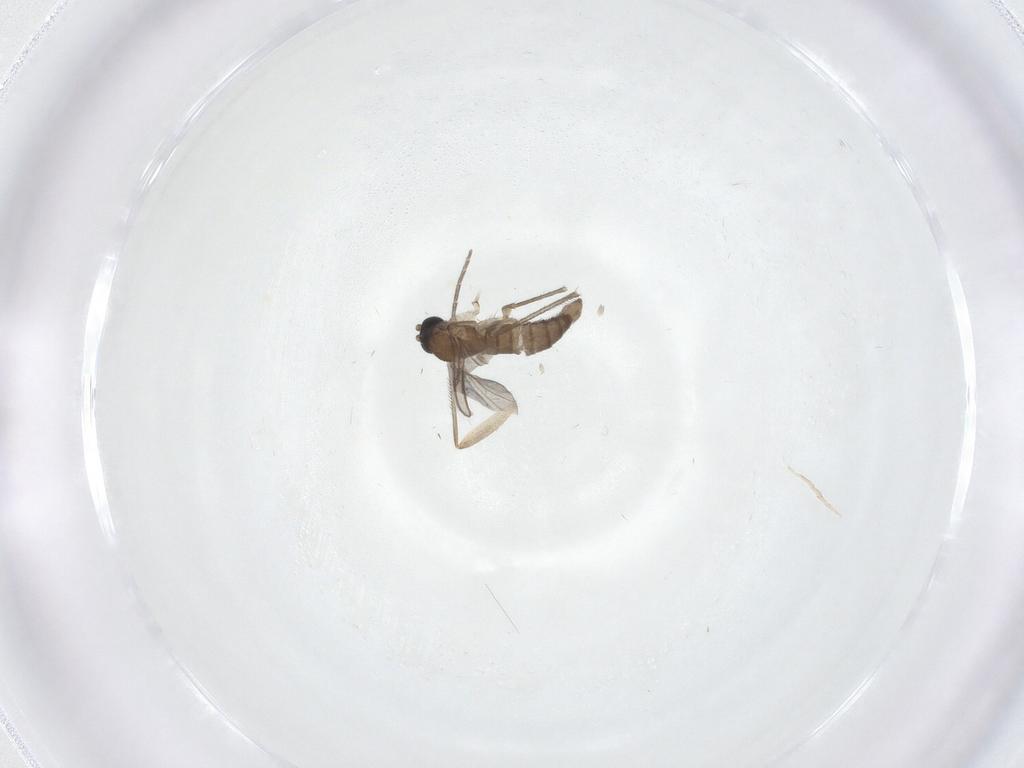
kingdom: Animalia
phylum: Arthropoda
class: Insecta
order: Diptera
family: Sciaridae
